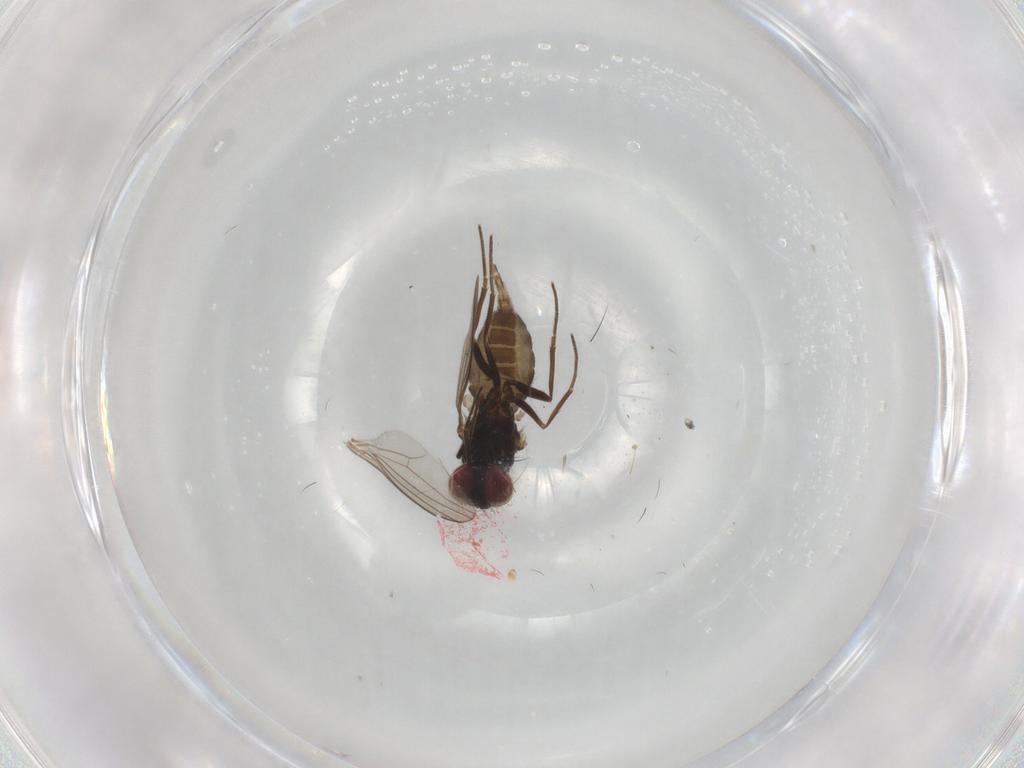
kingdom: Animalia
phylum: Arthropoda
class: Insecta
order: Diptera
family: Dolichopodidae
